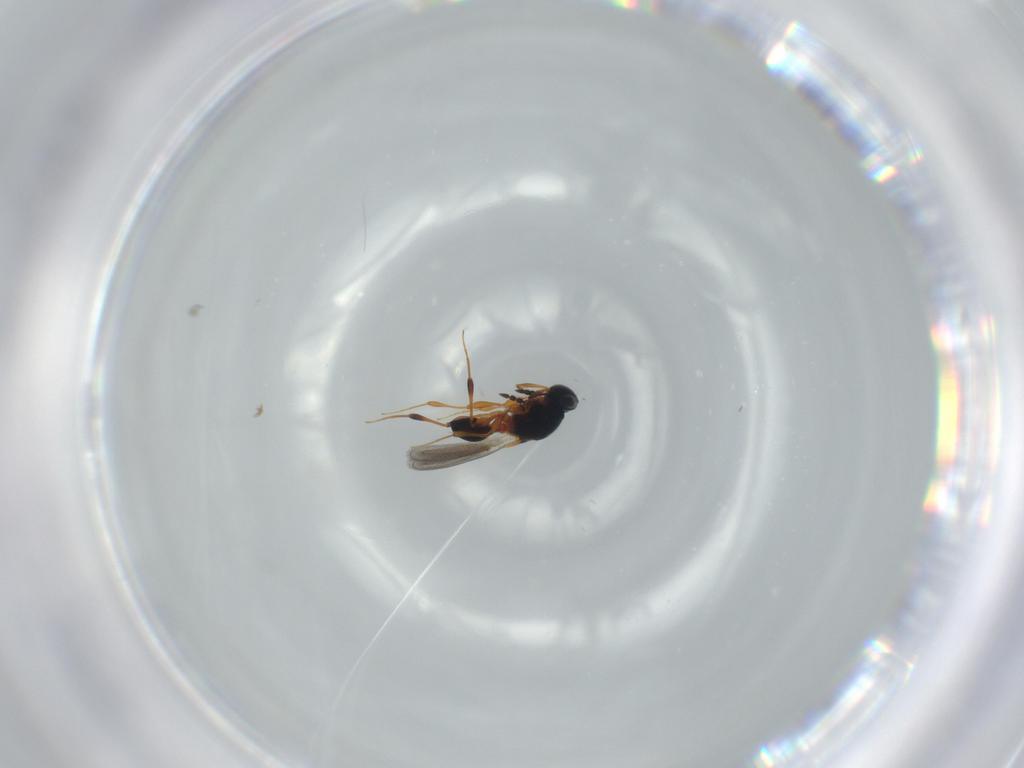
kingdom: Animalia
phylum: Arthropoda
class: Insecta
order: Hymenoptera
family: Platygastridae
